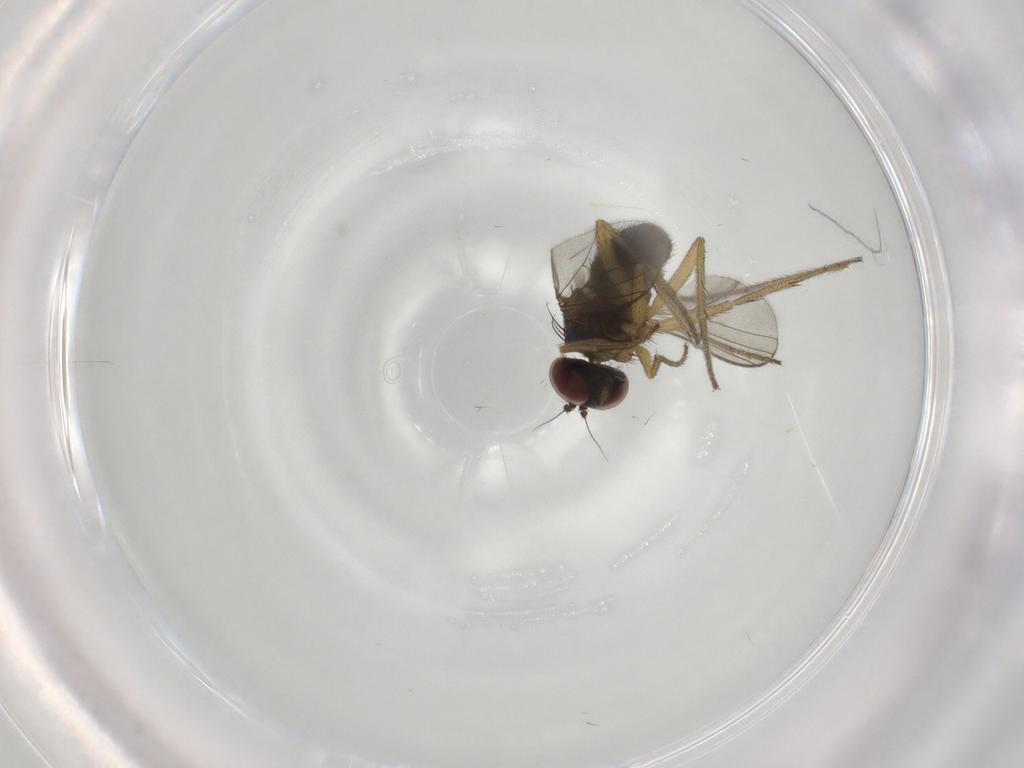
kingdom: Animalia
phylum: Arthropoda
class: Insecta
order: Diptera
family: Dolichopodidae
